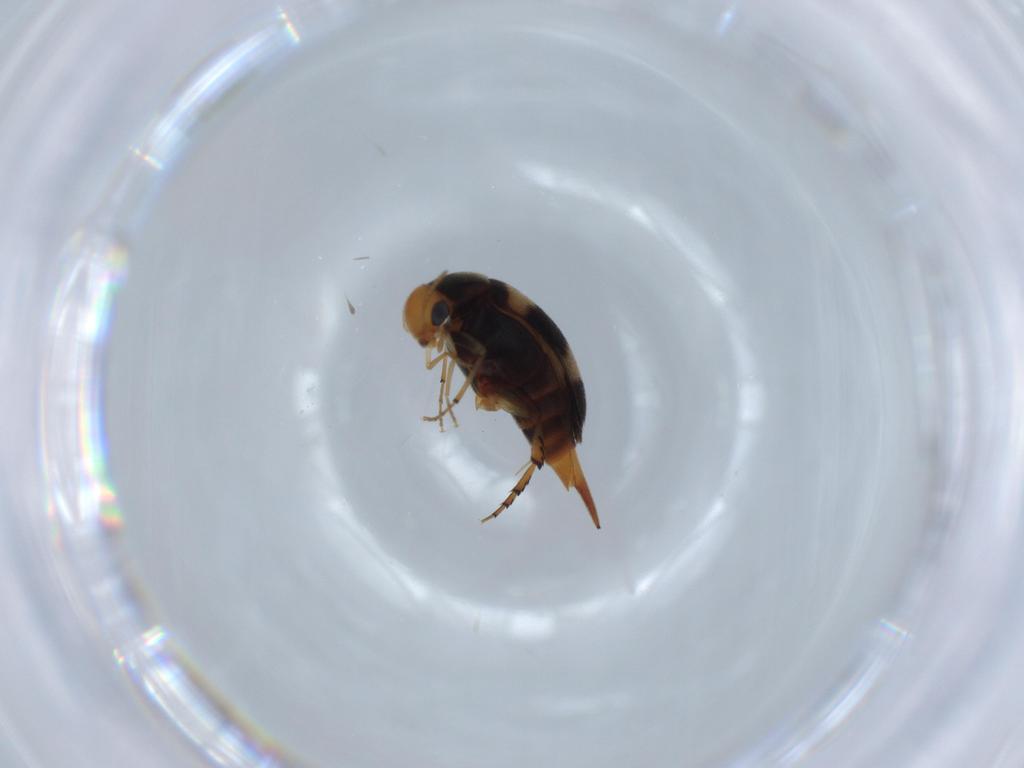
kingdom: Animalia
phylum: Arthropoda
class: Insecta
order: Coleoptera
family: Mordellidae
